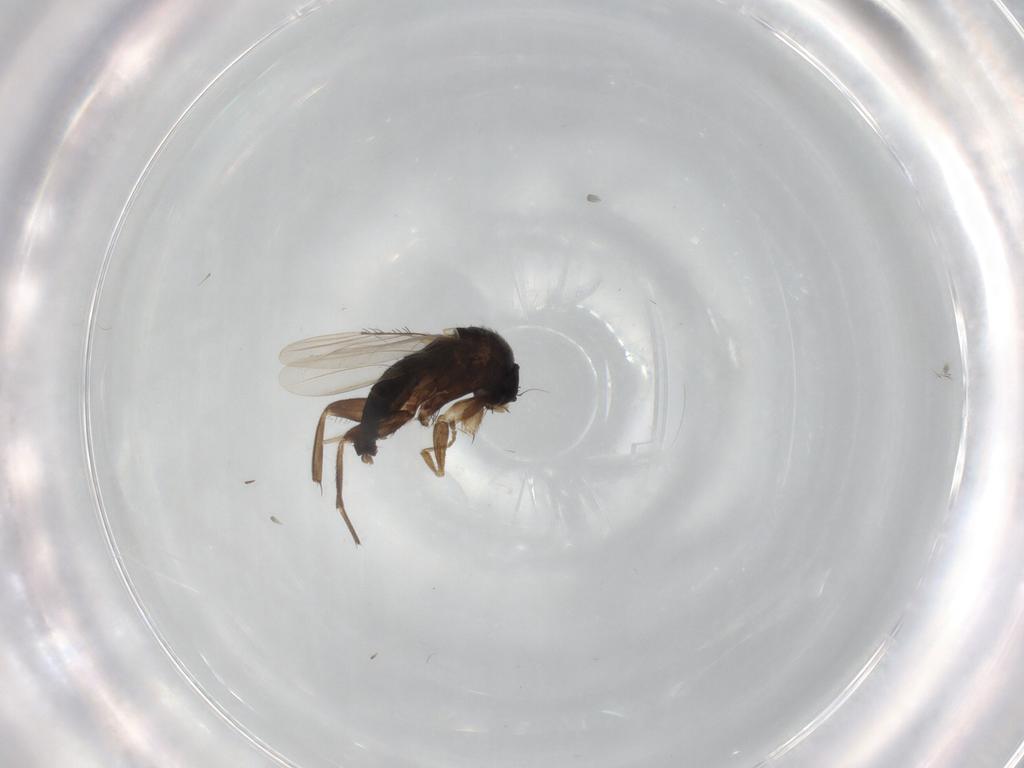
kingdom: Animalia
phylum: Arthropoda
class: Insecta
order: Diptera
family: Phoridae
